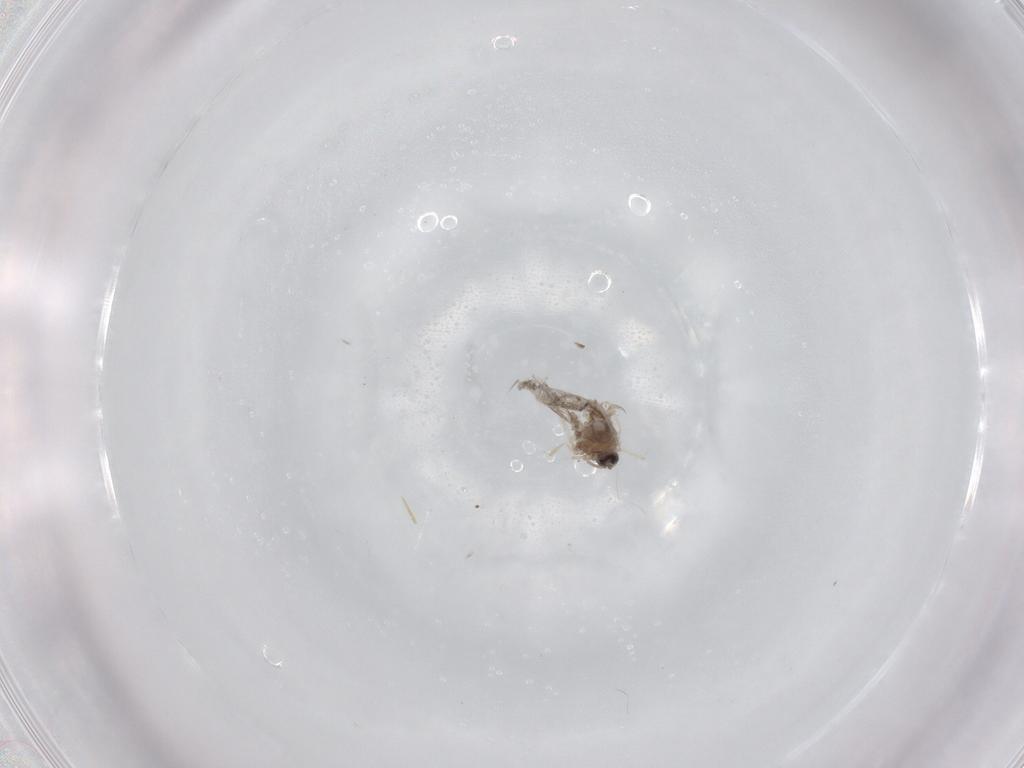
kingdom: Animalia
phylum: Arthropoda
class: Insecta
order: Diptera
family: Cecidomyiidae
